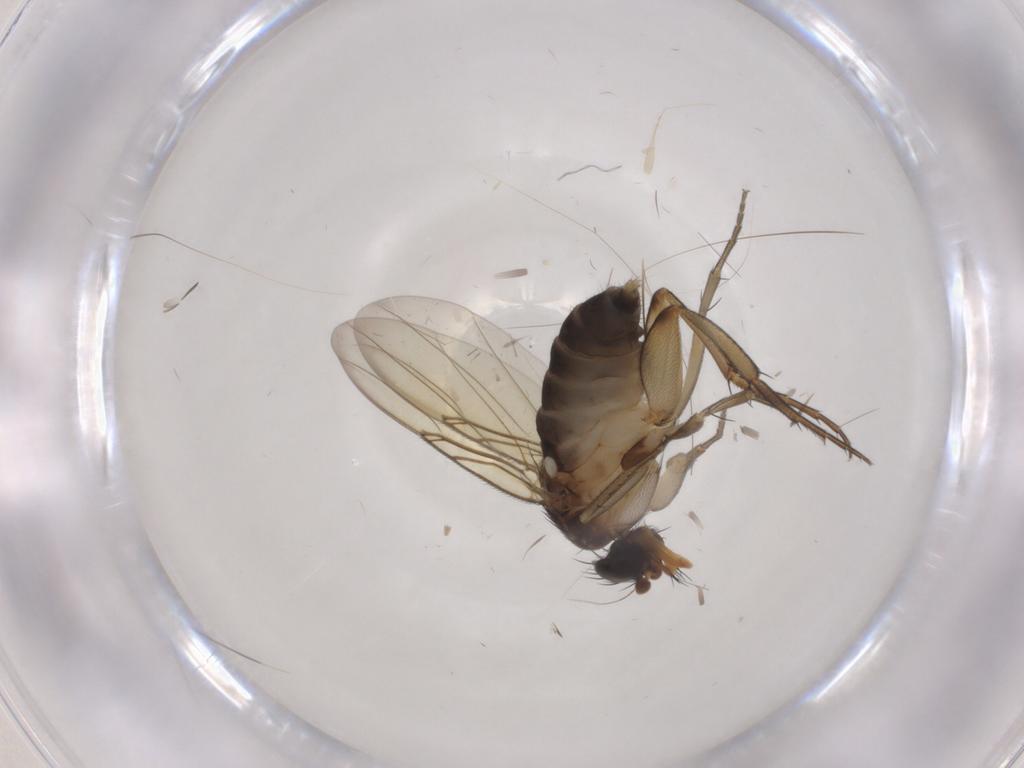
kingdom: Animalia
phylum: Arthropoda
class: Insecta
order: Diptera
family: Phoridae
